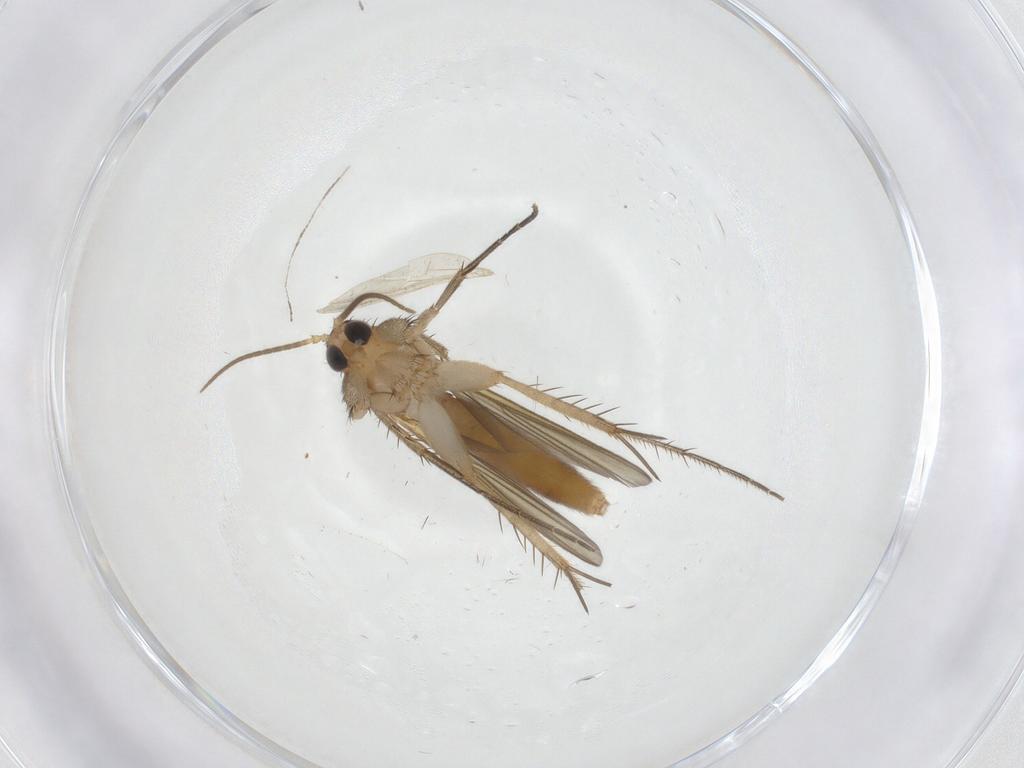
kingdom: Animalia
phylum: Arthropoda
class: Insecta
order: Diptera
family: Mycetophilidae
